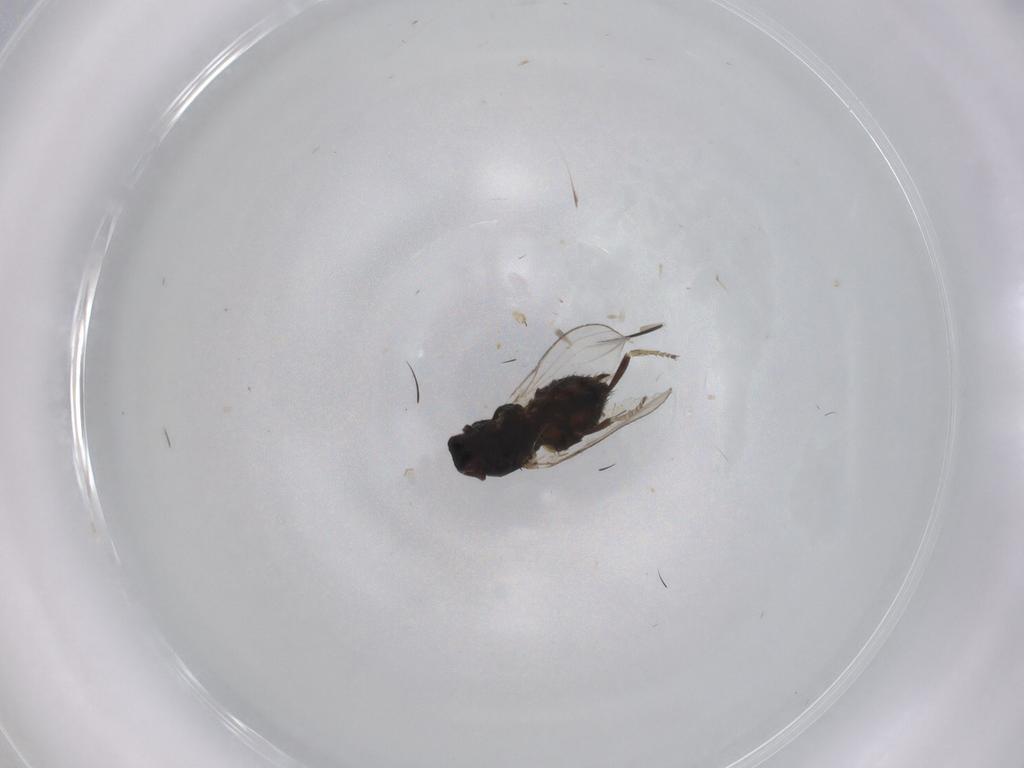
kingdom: Animalia
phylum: Arthropoda
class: Insecta
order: Diptera
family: Milichiidae
